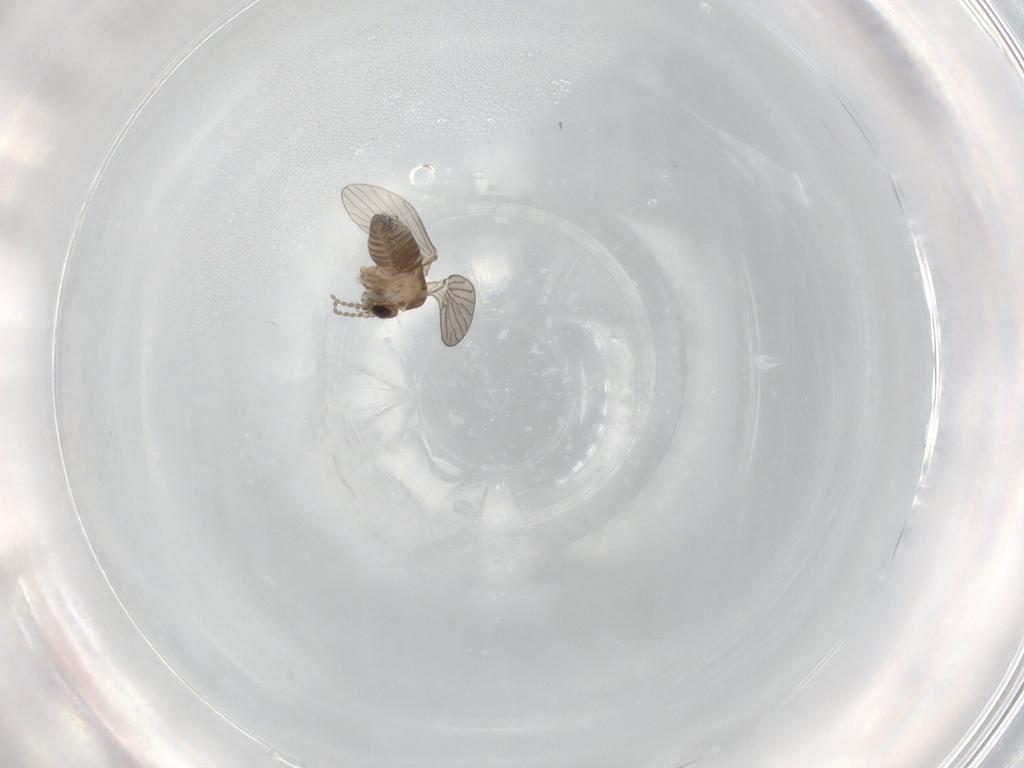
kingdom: Animalia
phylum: Arthropoda
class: Insecta
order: Diptera
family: Psychodidae
